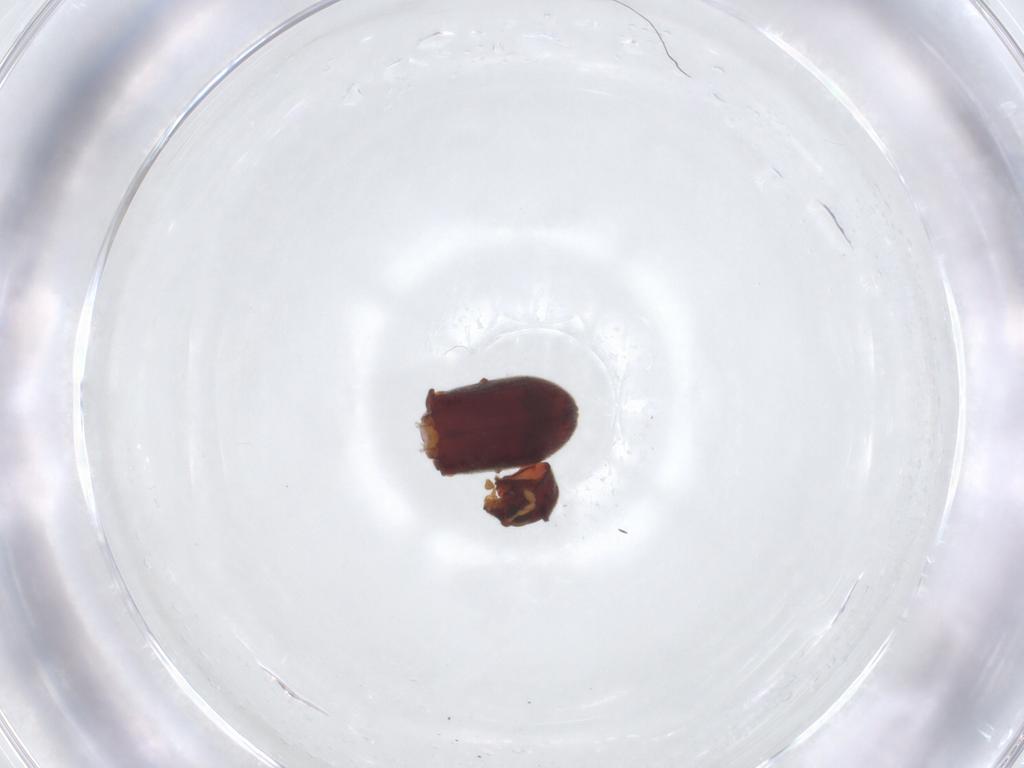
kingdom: Animalia
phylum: Arthropoda
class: Insecta
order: Coleoptera
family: Anobiidae
